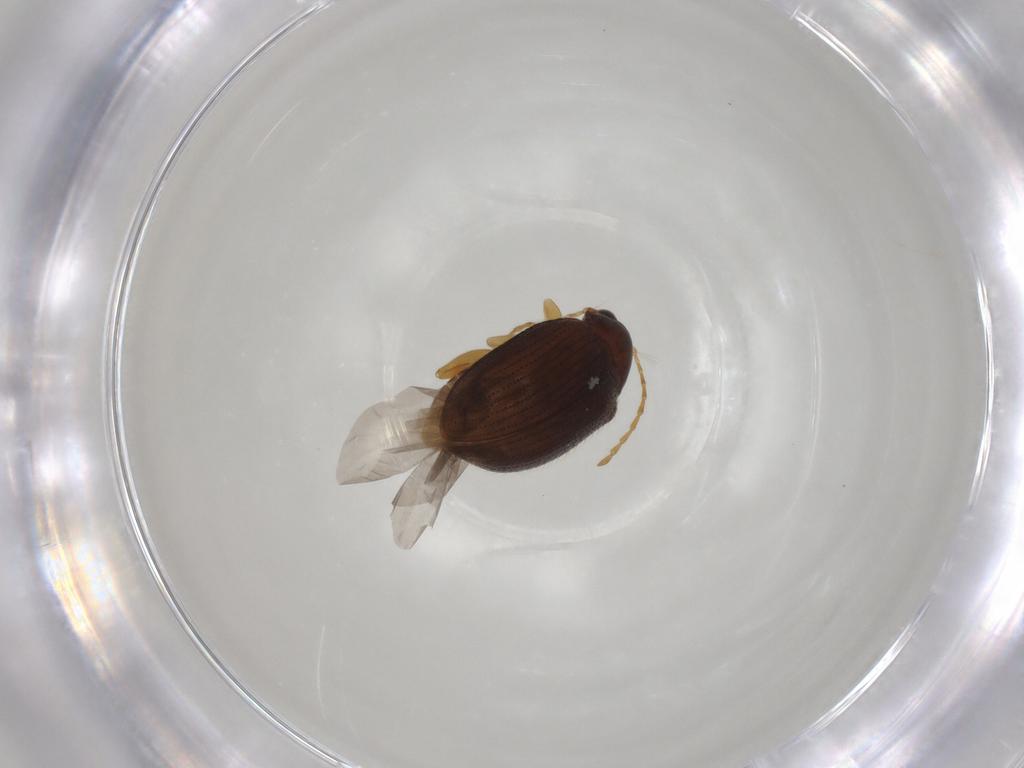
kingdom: Animalia
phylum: Arthropoda
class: Insecta
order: Coleoptera
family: Chrysomelidae
